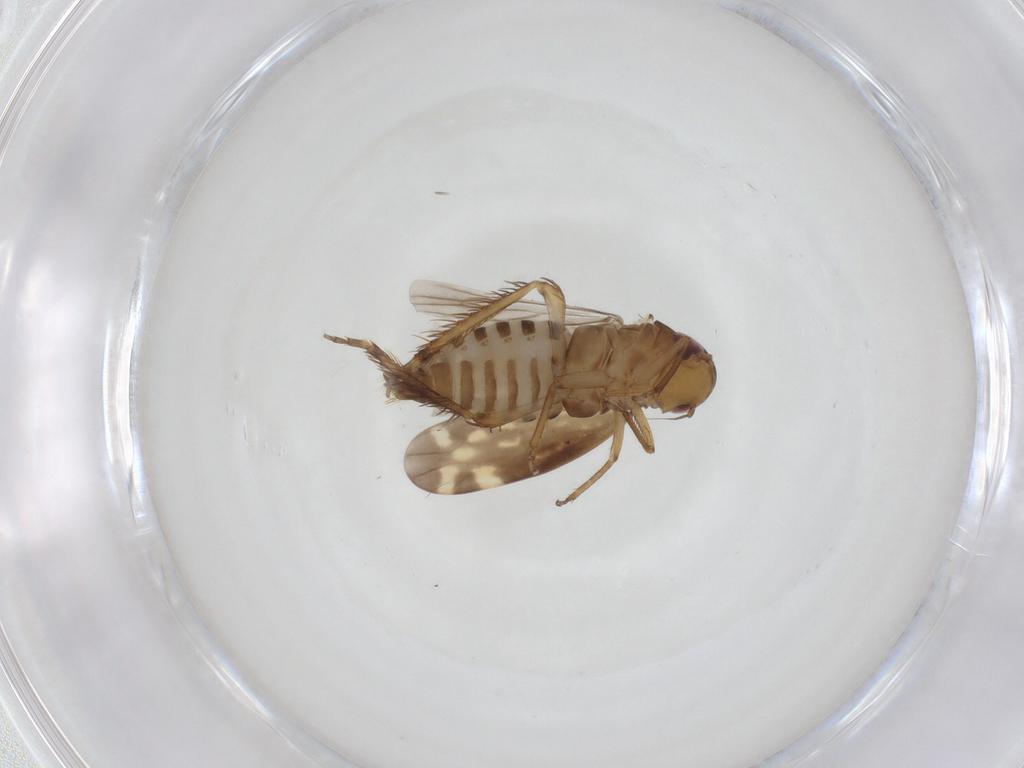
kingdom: Animalia
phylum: Arthropoda
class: Insecta
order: Hemiptera
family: Cicadellidae
